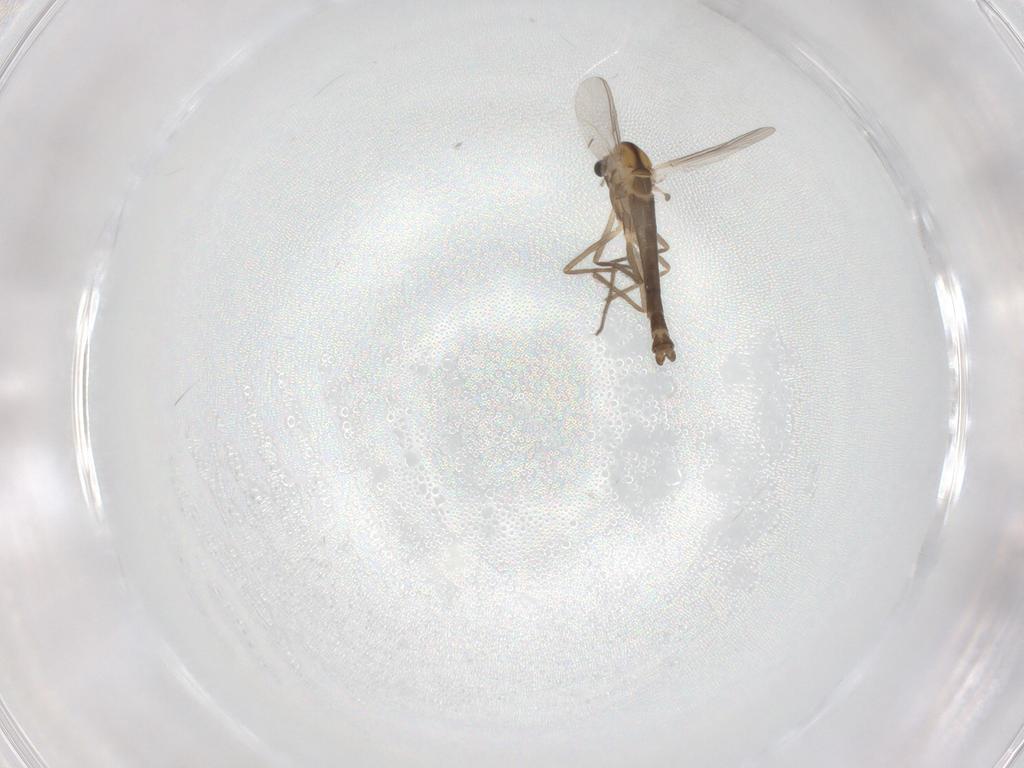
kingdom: Animalia
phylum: Arthropoda
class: Insecta
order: Diptera
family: Chironomidae
